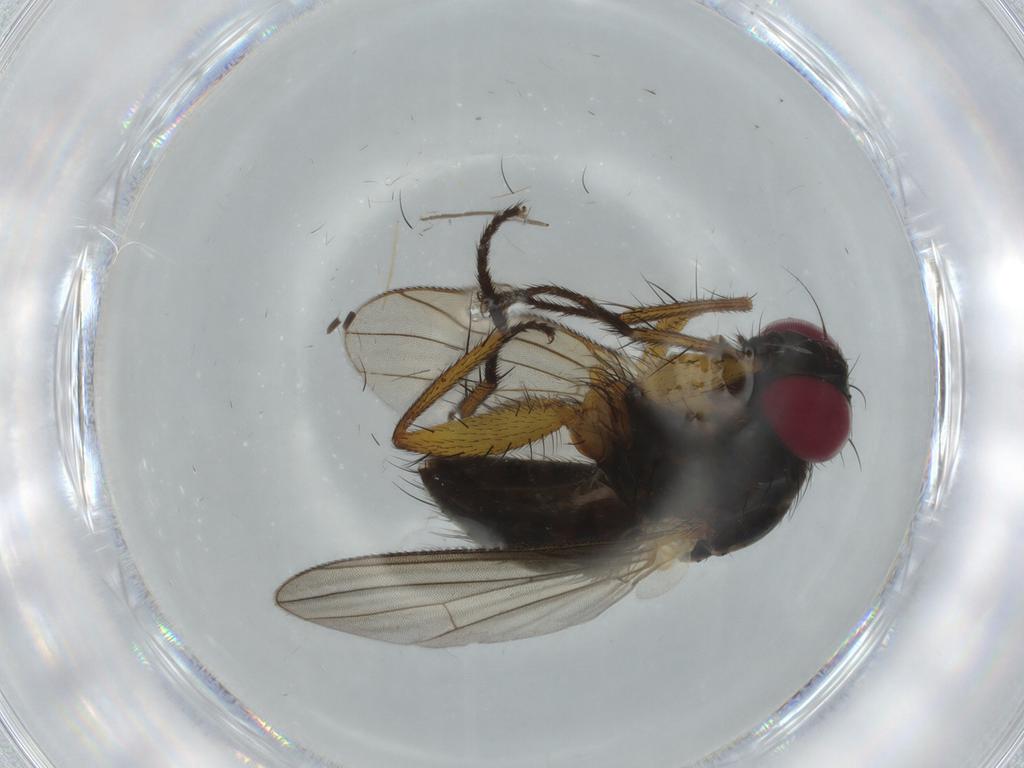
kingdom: Animalia
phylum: Arthropoda
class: Insecta
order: Diptera
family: Muscidae
